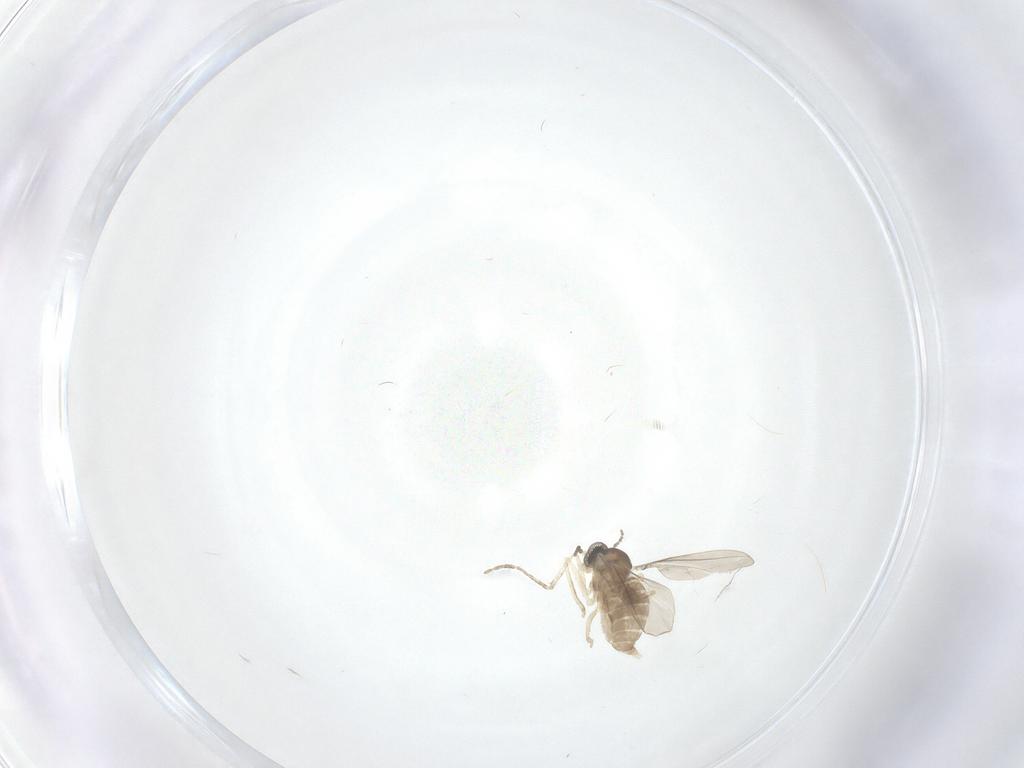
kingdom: Animalia
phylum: Arthropoda
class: Insecta
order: Diptera
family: Cecidomyiidae
